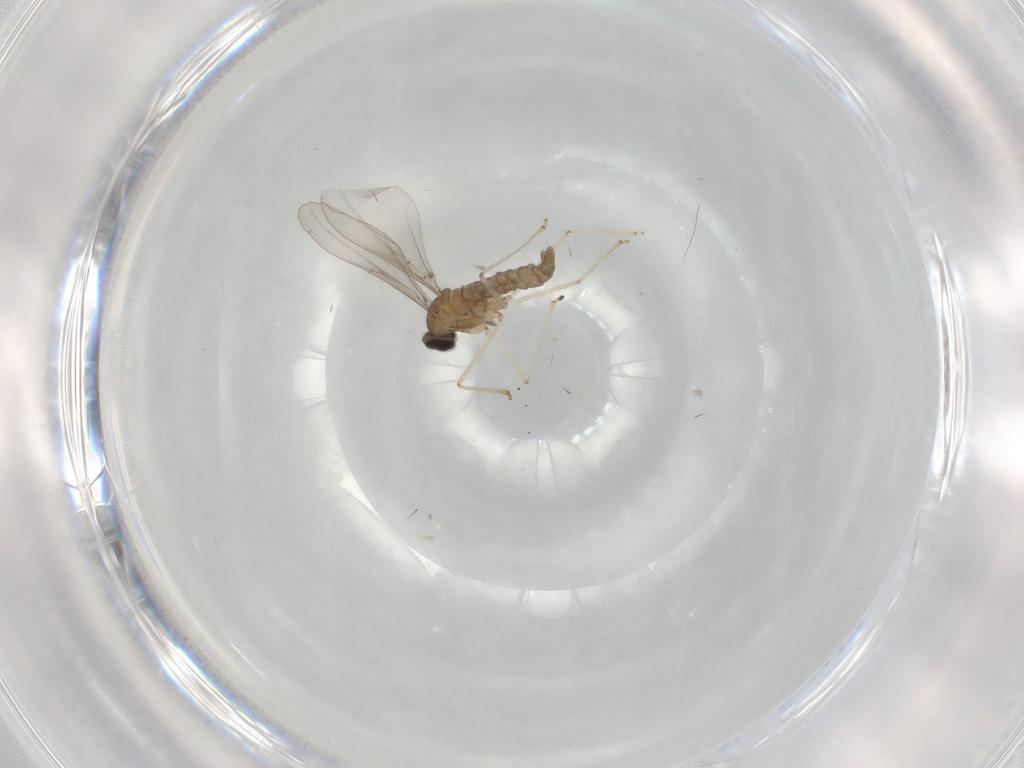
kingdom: Animalia
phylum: Arthropoda
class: Insecta
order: Diptera
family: Cecidomyiidae
